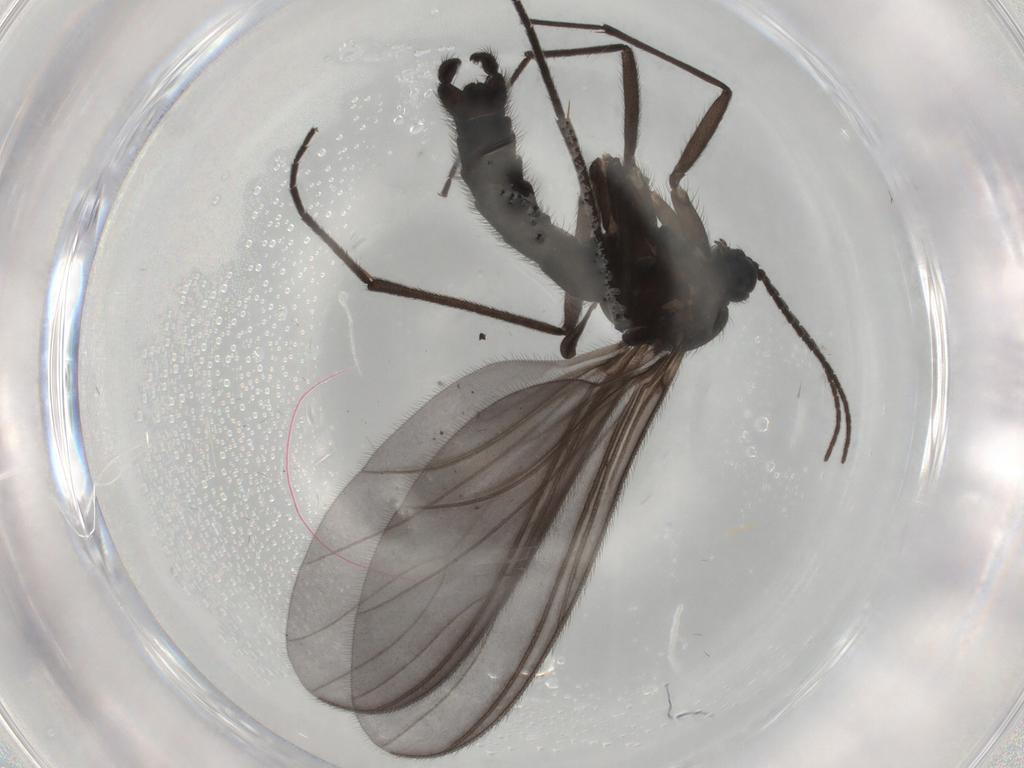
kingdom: Animalia
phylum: Arthropoda
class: Insecta
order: Diptera
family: Sciaridae
